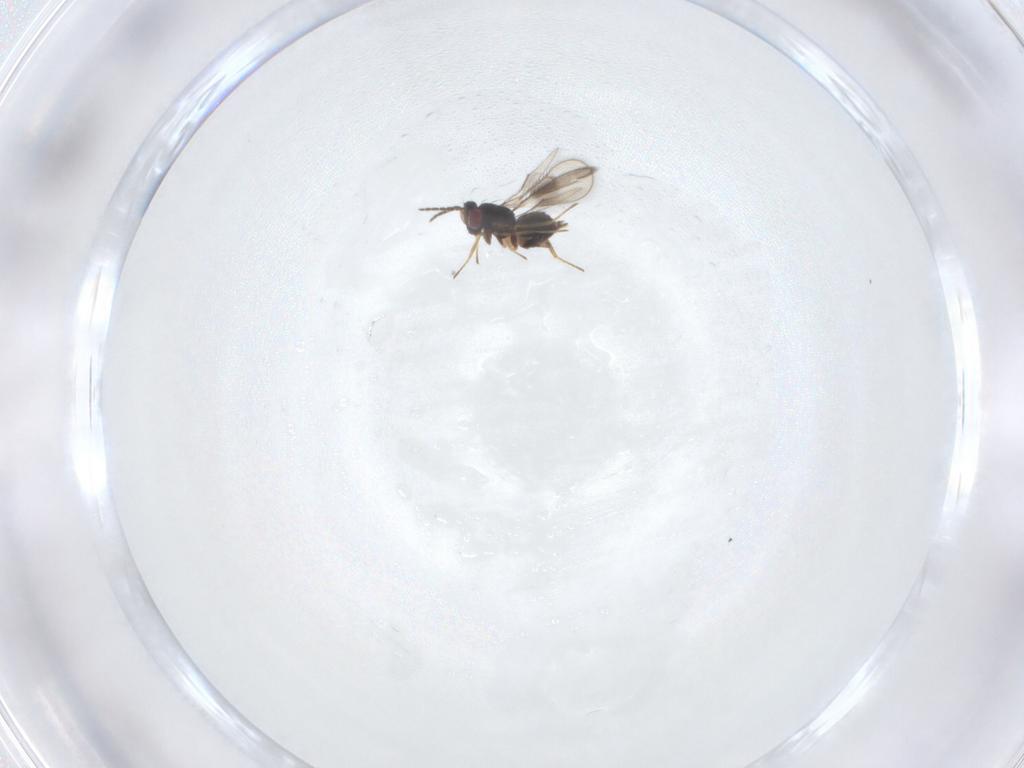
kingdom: Animalia
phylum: Arthropoda
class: Insecta
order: Hymenoptera
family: Eulophidae
